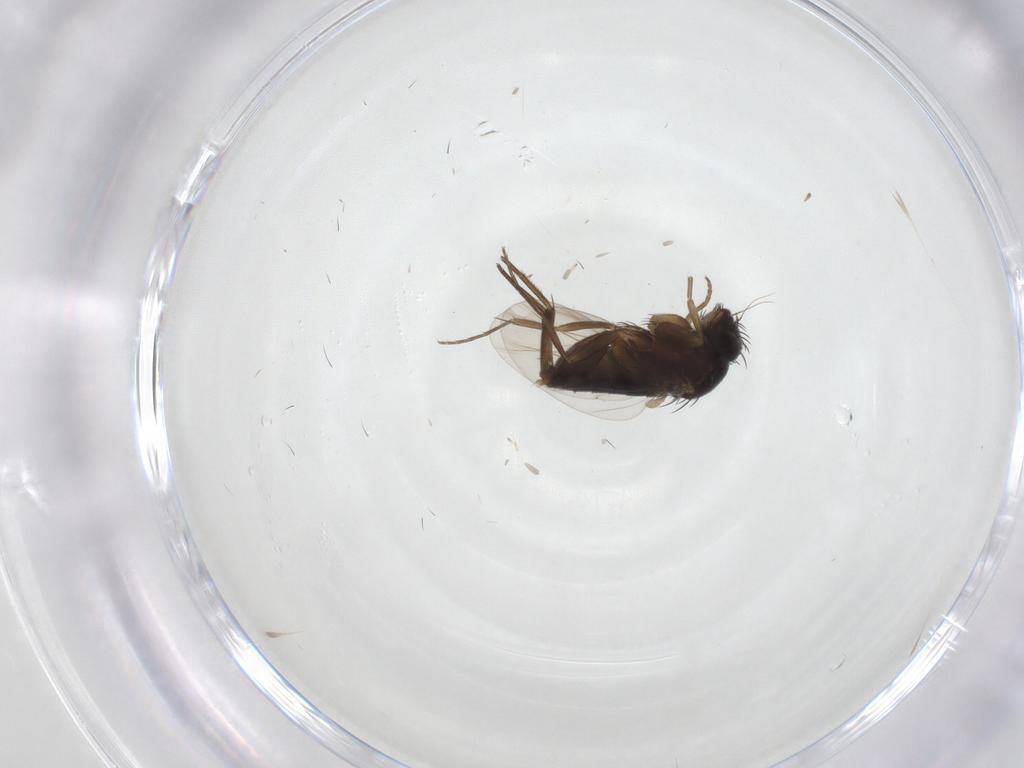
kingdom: Animalia
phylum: Arthropoda
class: Insecta
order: Diptera
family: Phoridae
